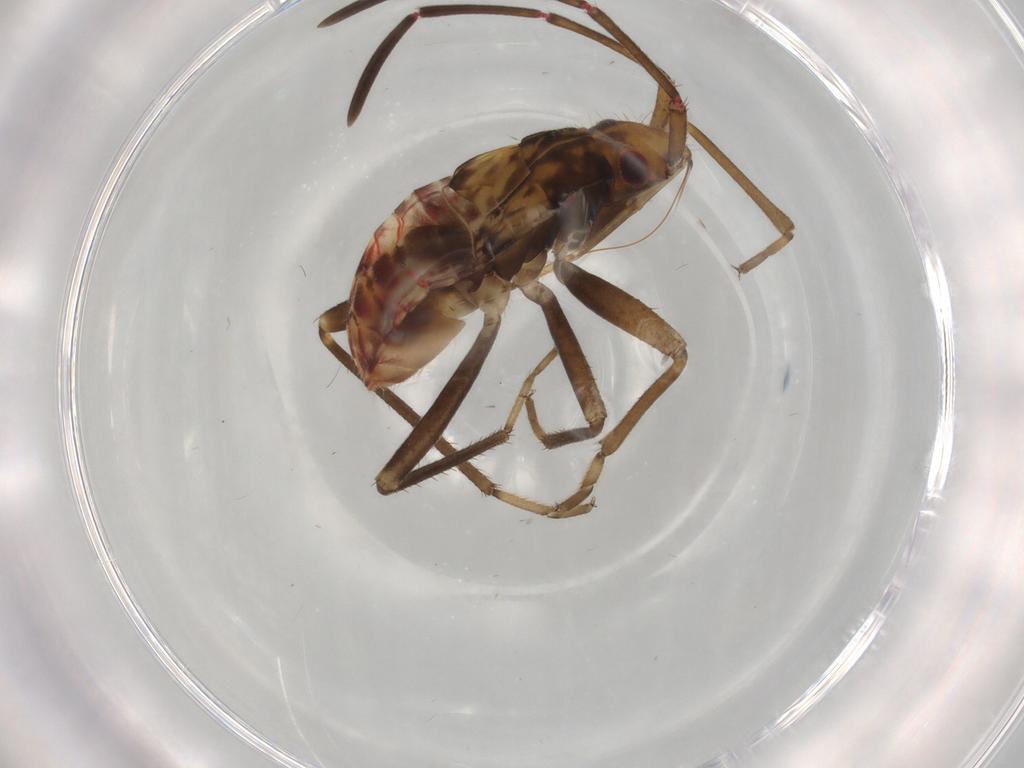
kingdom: Animalia
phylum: Arthropoda
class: Insecta
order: Hemiptera
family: Rhyparochromidae
